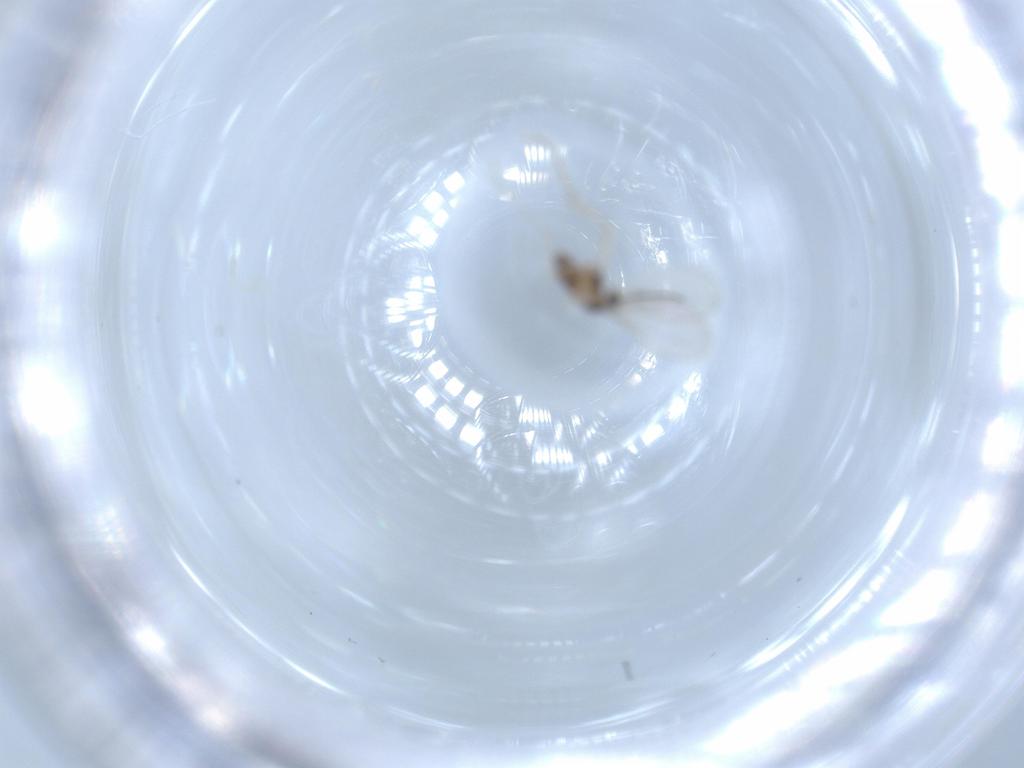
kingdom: Animalia
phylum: Arthropoda
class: Insecta
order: Diptera
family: Cecidomyiidae
